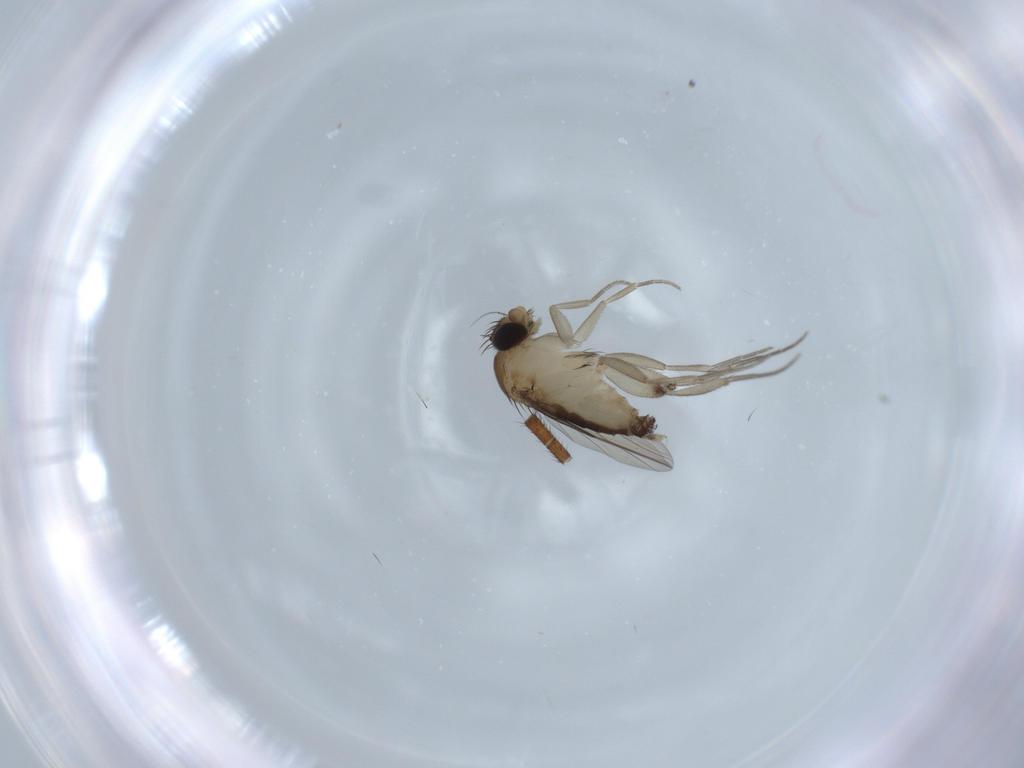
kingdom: Animalia
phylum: Arthropoda
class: Insecta
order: Diptera
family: Phoridae
